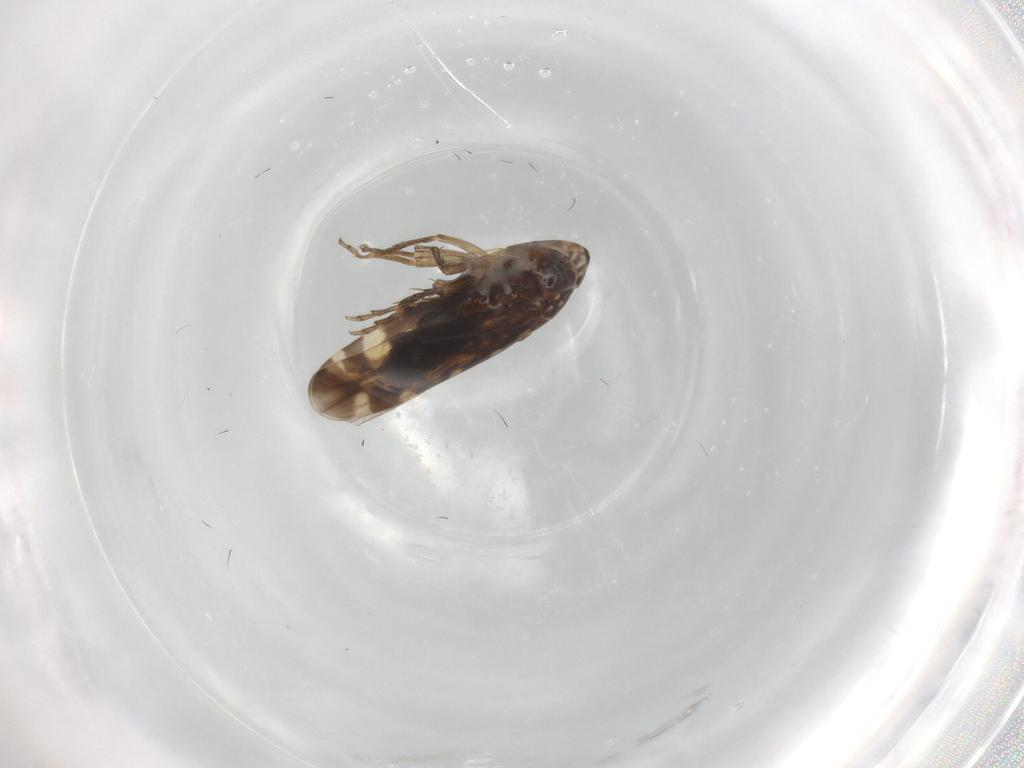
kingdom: Animalia
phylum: Arthropoda
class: Insecta
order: Hemiptera
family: Cicadellidae
